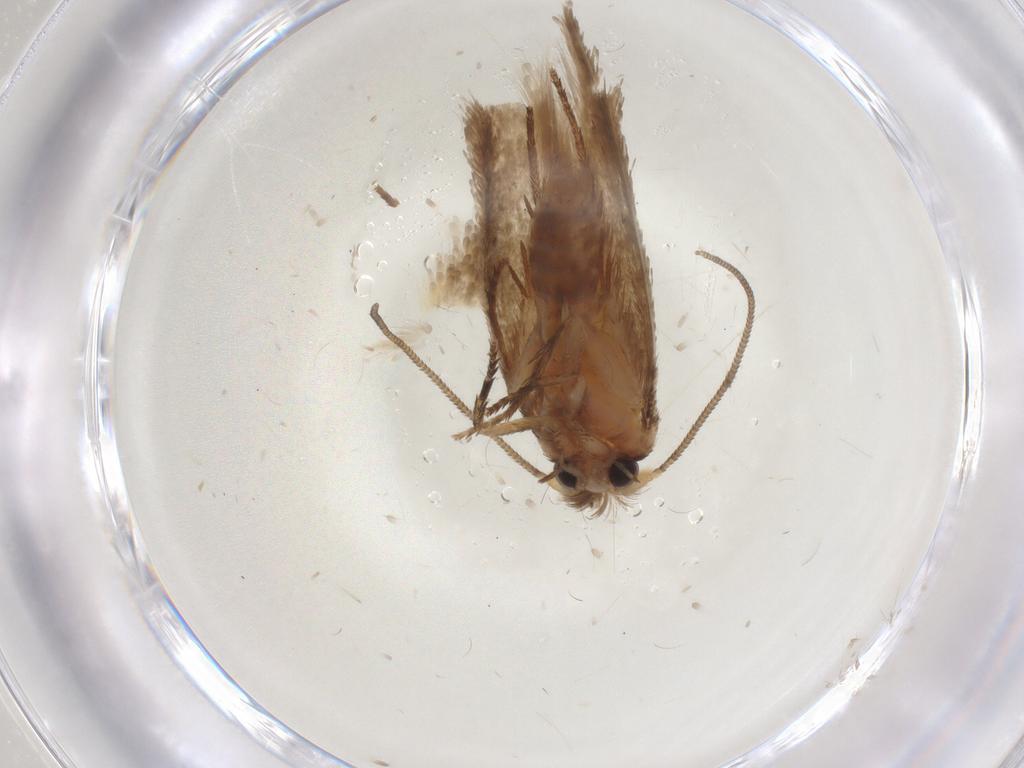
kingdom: Animalia
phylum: Arthropoda
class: Insecta
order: Lepidoptera
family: Nepticulidae
